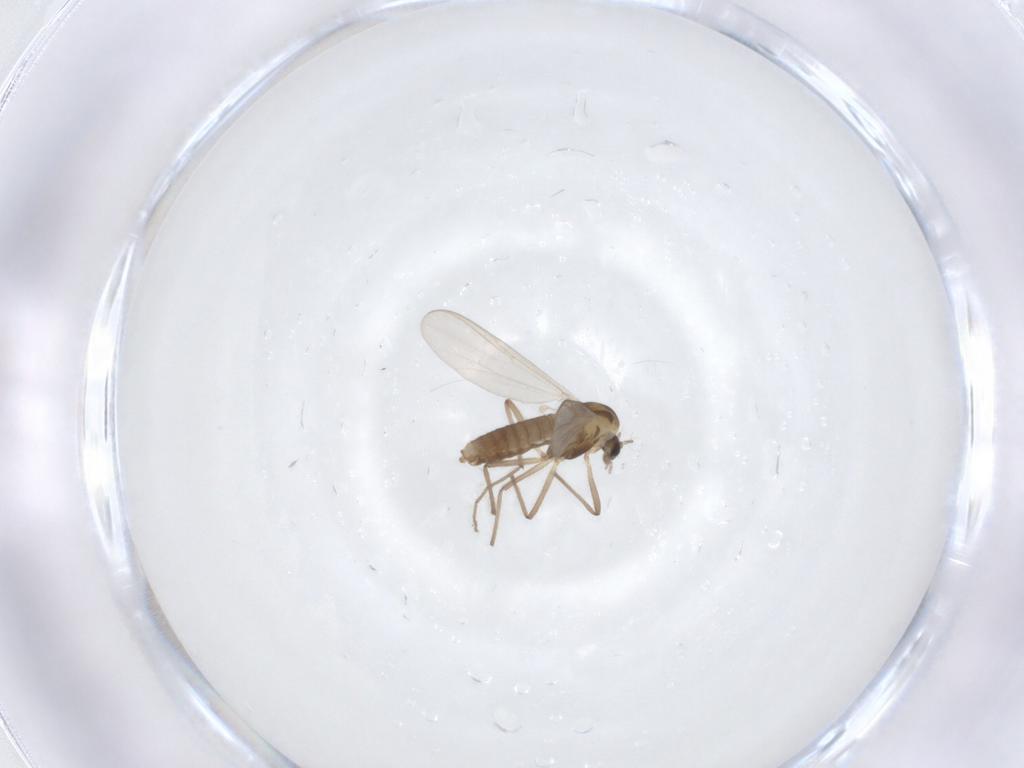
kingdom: Animalia
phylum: Arthropoda
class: Insecta
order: Diptera
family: Chironomidae
